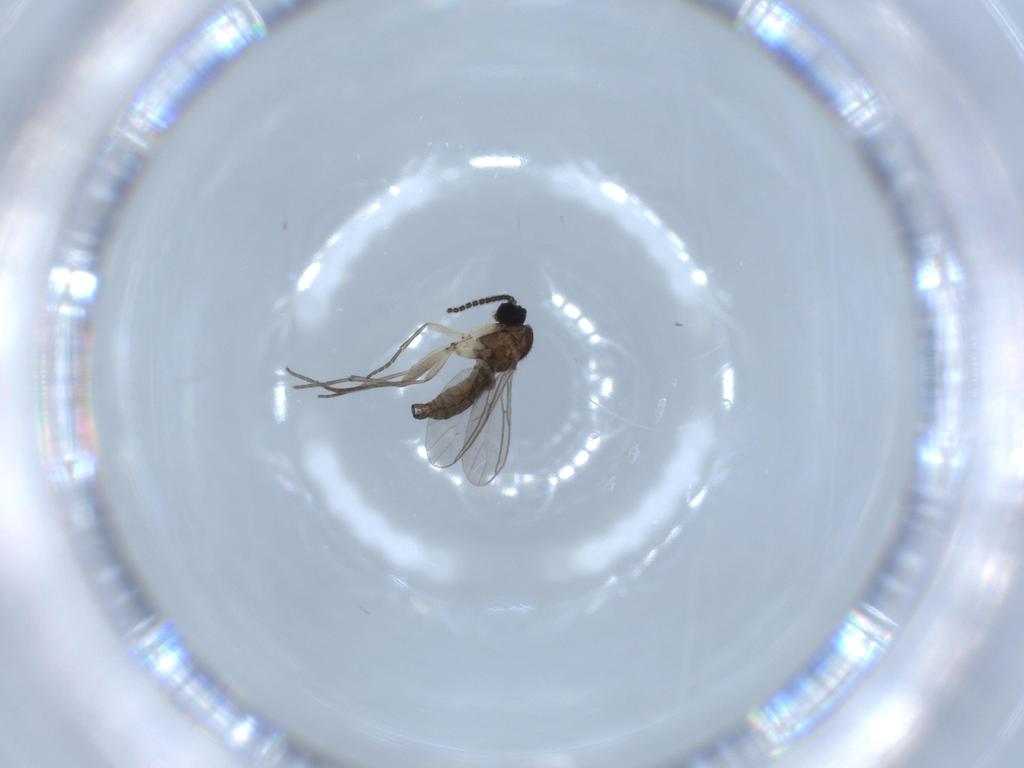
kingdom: Animalia
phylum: Arthropoda
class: Insecta
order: Diptera
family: Sciaridae
